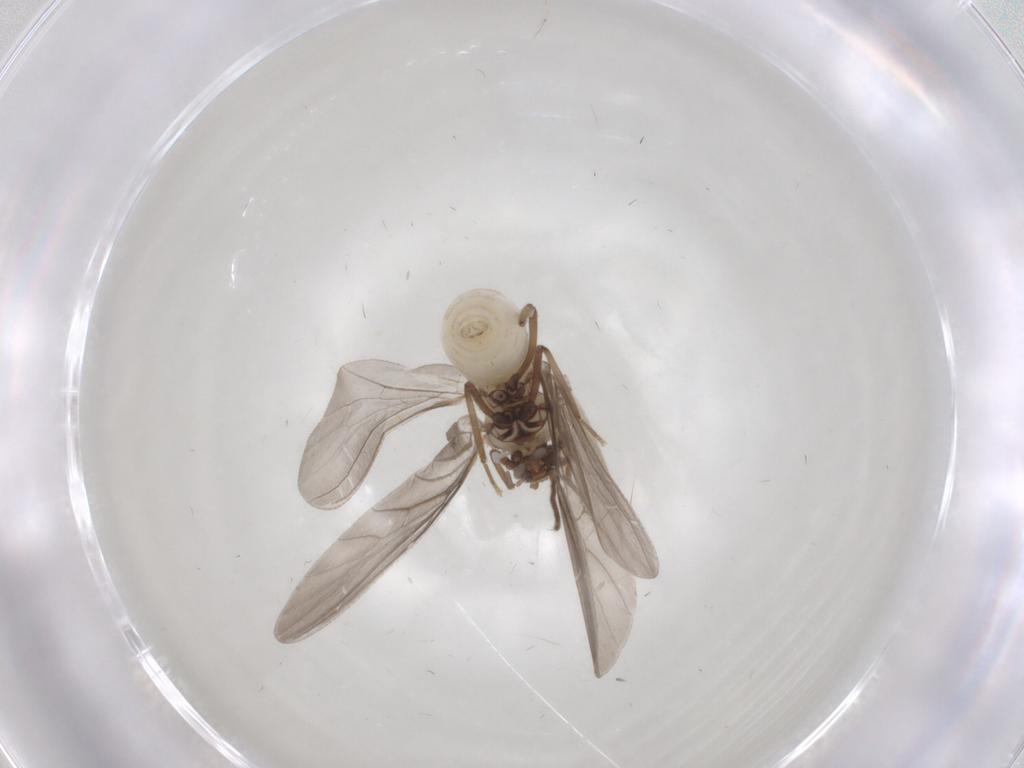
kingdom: Animalia
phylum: Arthropoda
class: Insecta
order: Neuroptera
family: Coniopterygidae
